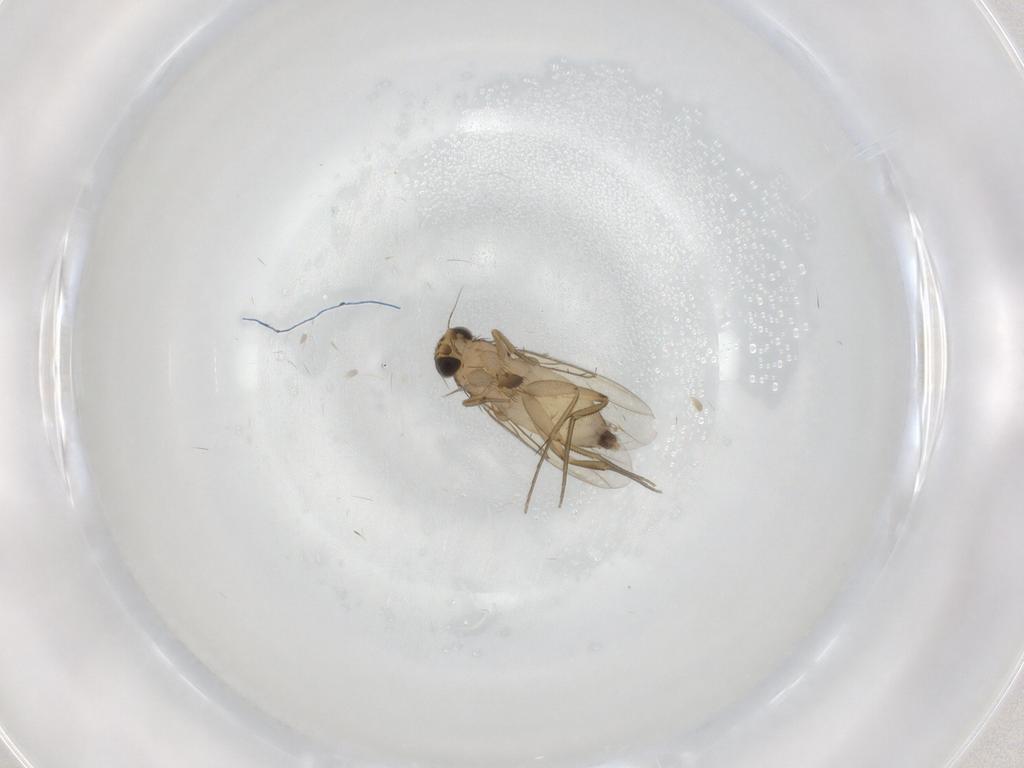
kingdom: Animalia
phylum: Arthropoda
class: Insecta
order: Diptera
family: Phoridae
